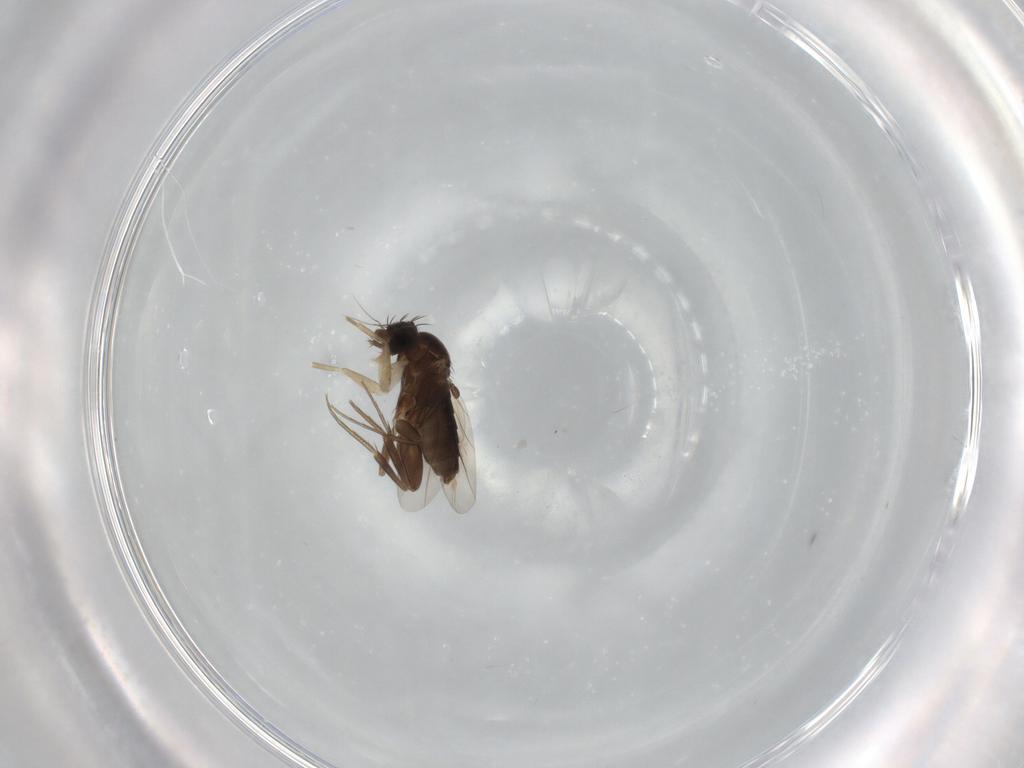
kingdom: Animalia
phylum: Arthropoda
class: Insecta
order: Diptera
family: Phoridae
